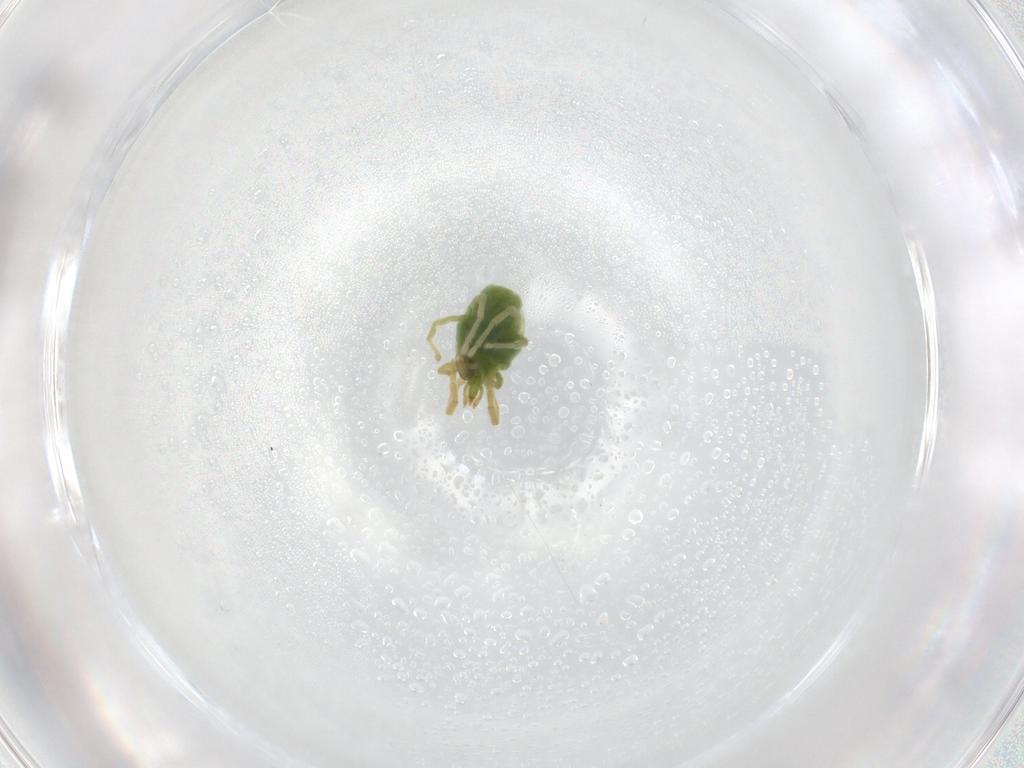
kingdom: Animalia
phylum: Arthropoda
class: Arachnida
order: Trombidiformes
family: Erythraeidae
